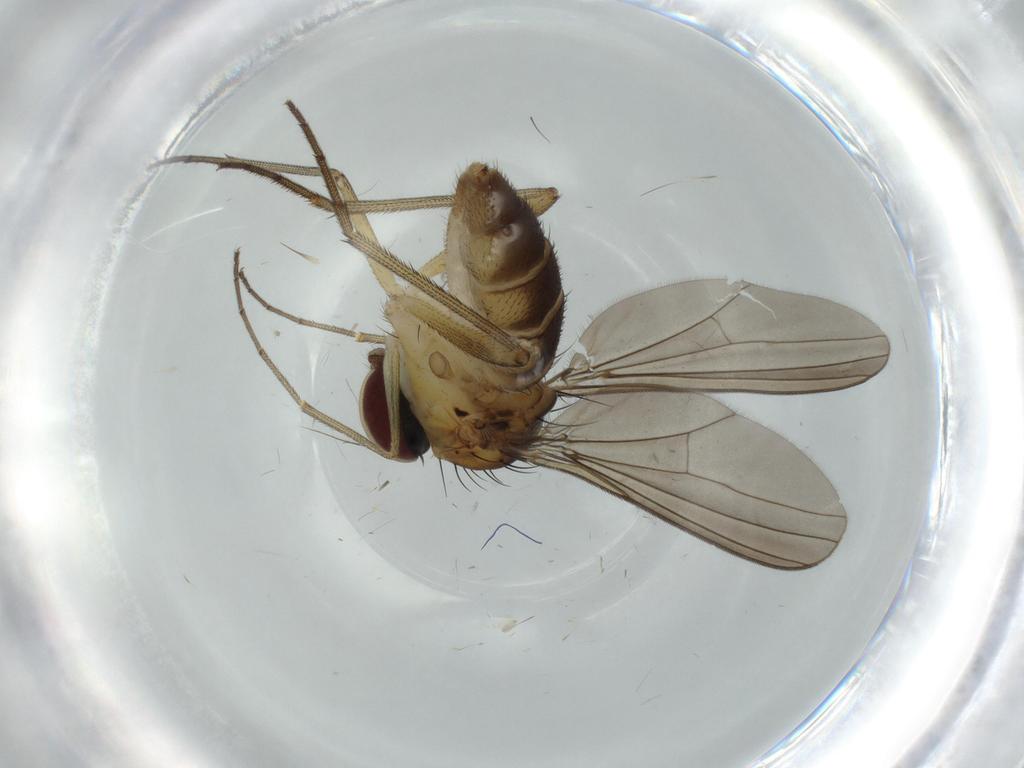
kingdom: Animalia
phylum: Arthropoda
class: Insecta
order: Diptera
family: Dolichopodidae
